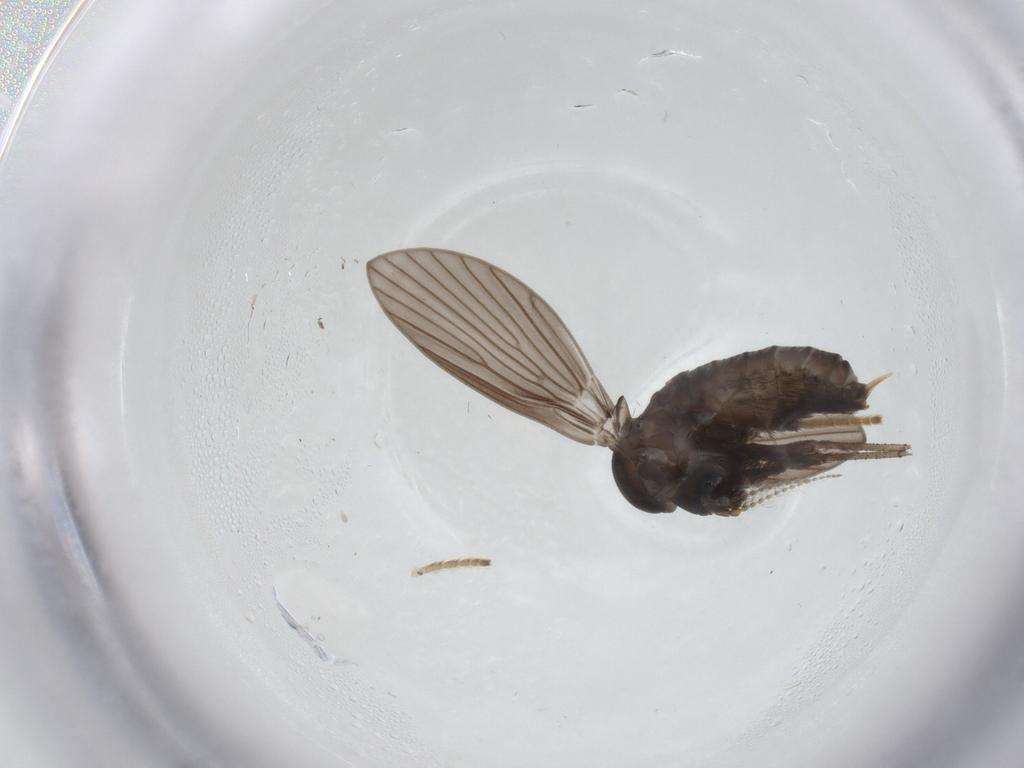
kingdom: Animalia
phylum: Arthropoda
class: Insecta
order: Diptera
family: Psychodidae
